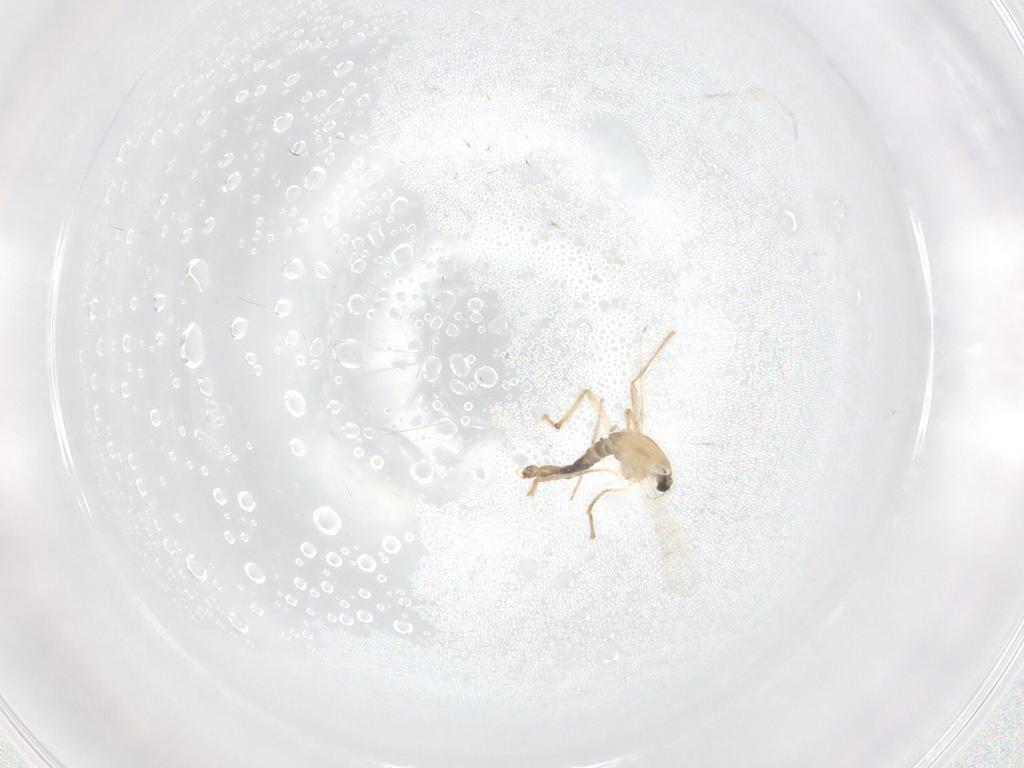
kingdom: Animalia
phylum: Arthropoda
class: Insecta
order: Diptera
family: Chironomidae
